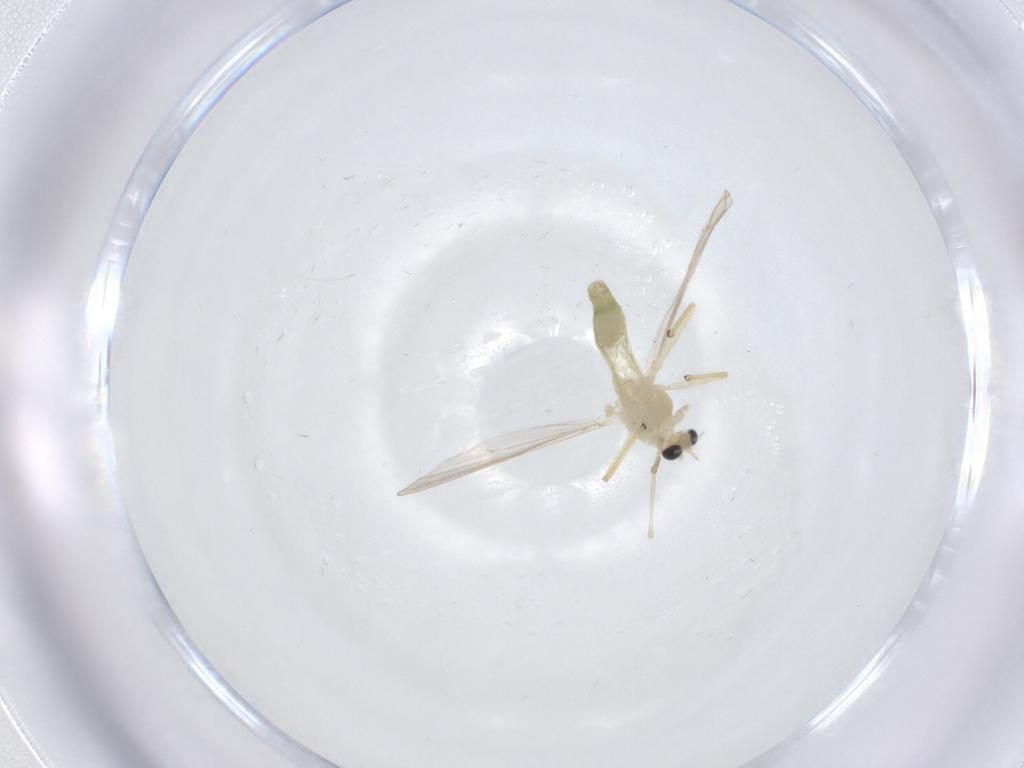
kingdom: Animalia
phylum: Arthropoda
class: Insecta
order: Diptera
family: Chironomidae
